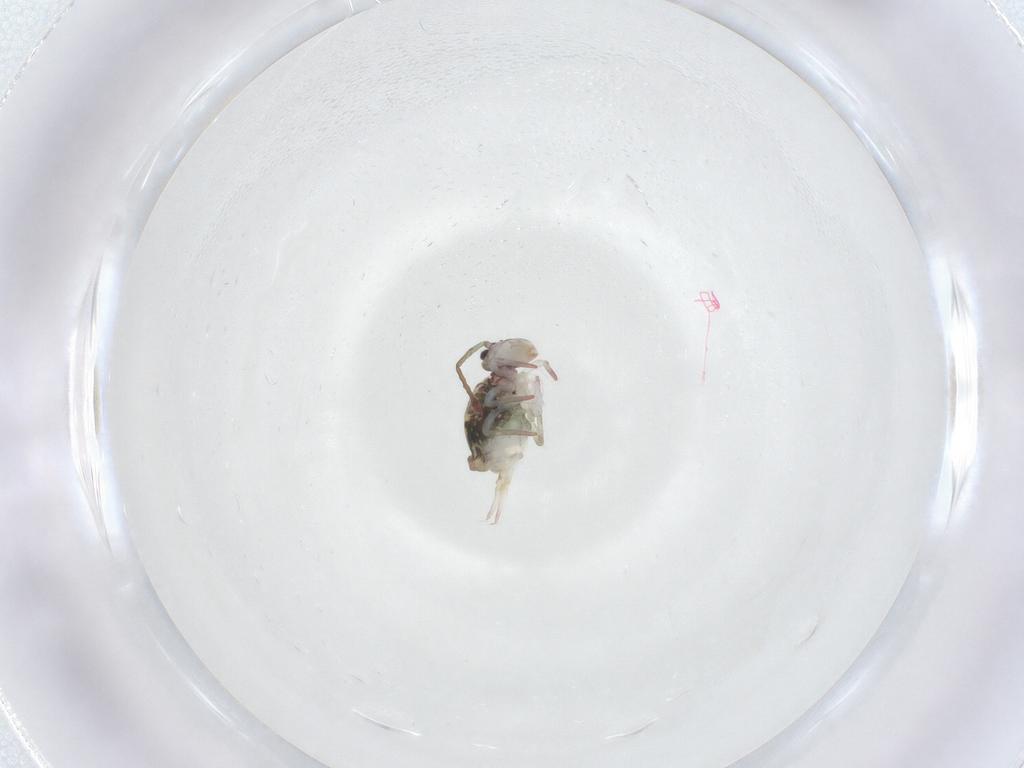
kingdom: Animalia
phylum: Arthropoda
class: Collembola
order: Symphypleona
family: Dicyrtomidae
